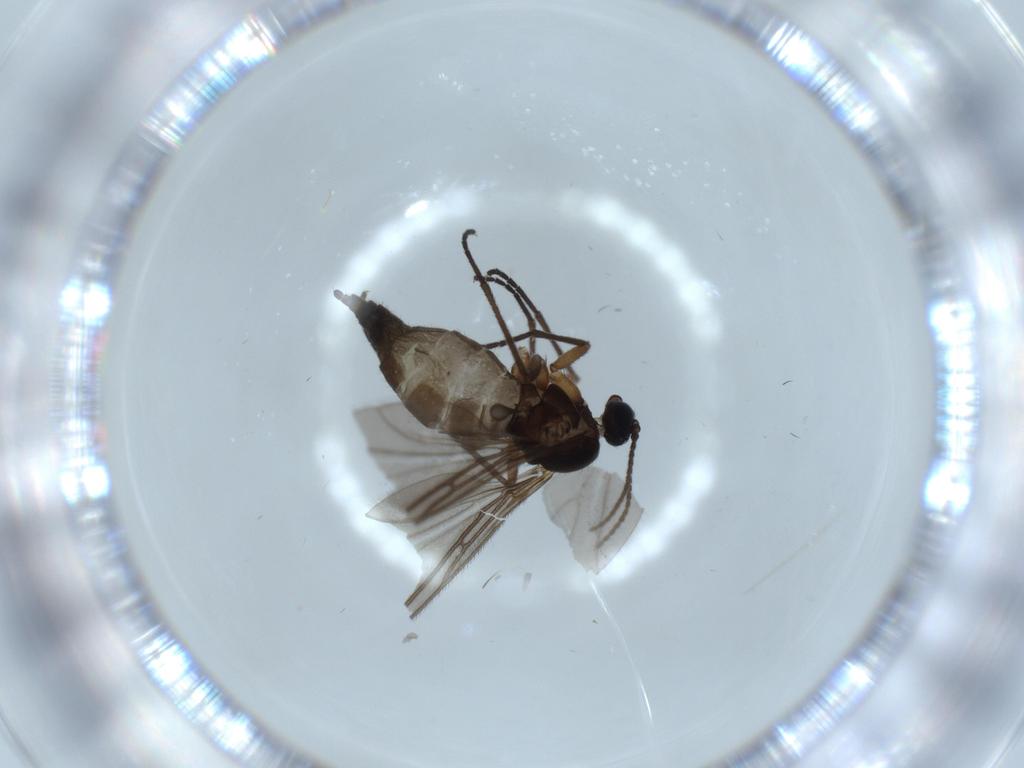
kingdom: Animalia
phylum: Arthropoda
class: Insecta
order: Diptera
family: Sciaridae
